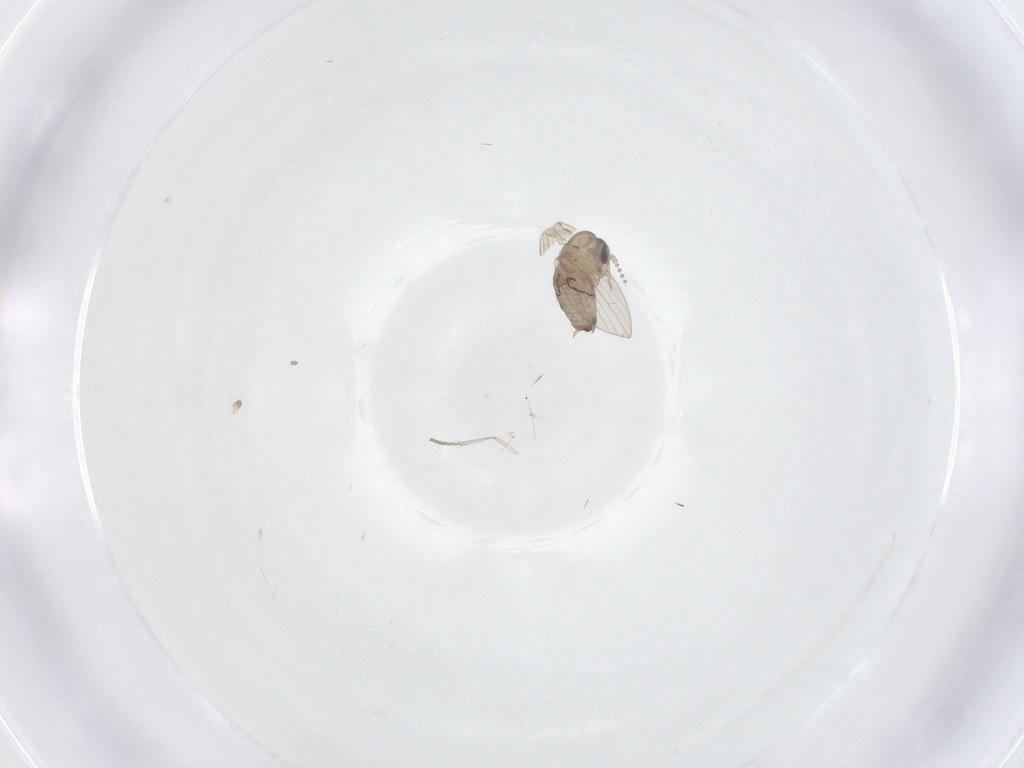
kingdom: Animalia
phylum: Arthropoda
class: Insecta
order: Diptera
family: Psychodidae
